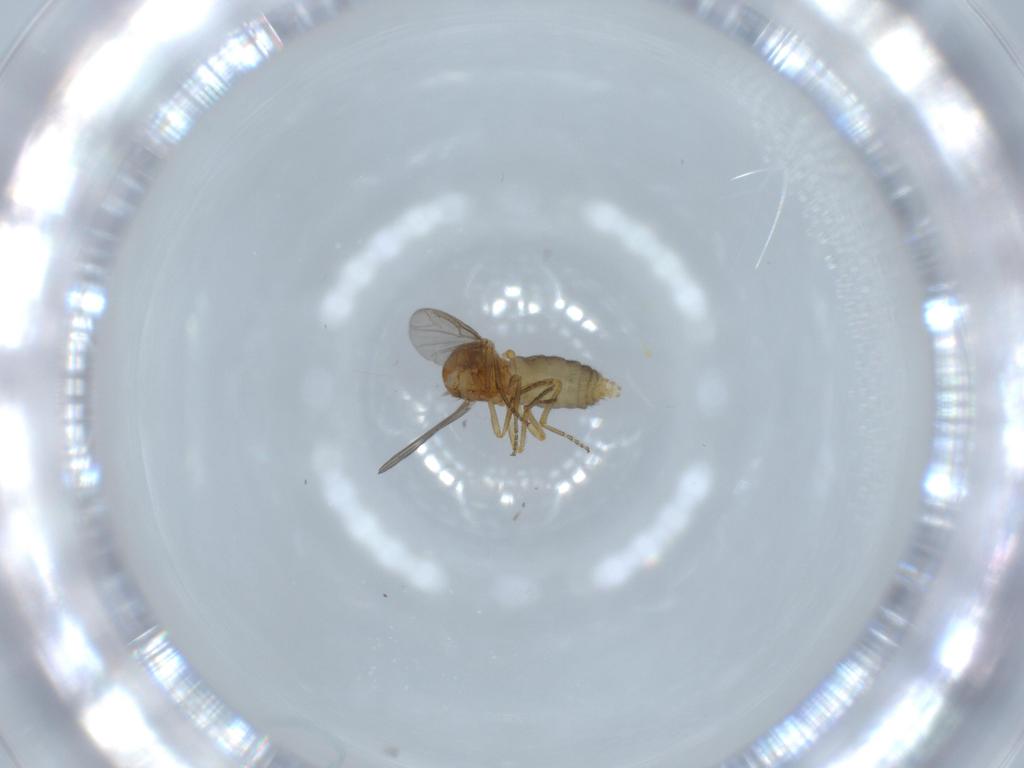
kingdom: Animalia
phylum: Arthropoda
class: Insecta
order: Diptera
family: Ceratopogonidae
